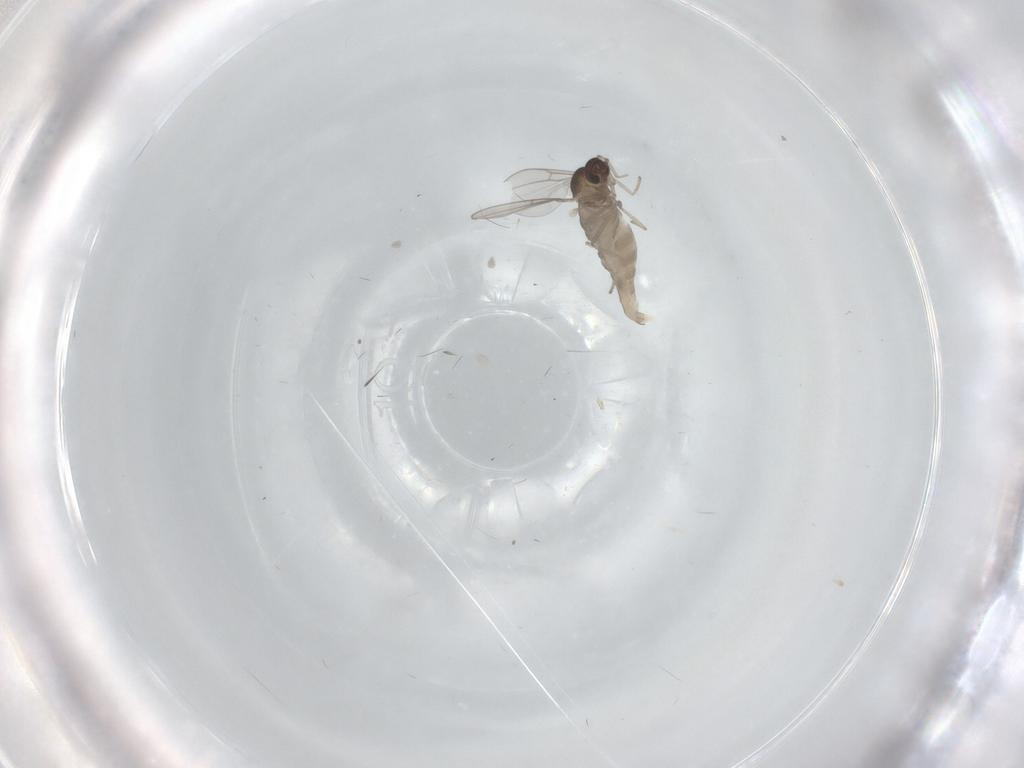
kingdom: Animalia
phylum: Arthropoda
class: Insecta
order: Diptera
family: Cecidomyiidae
